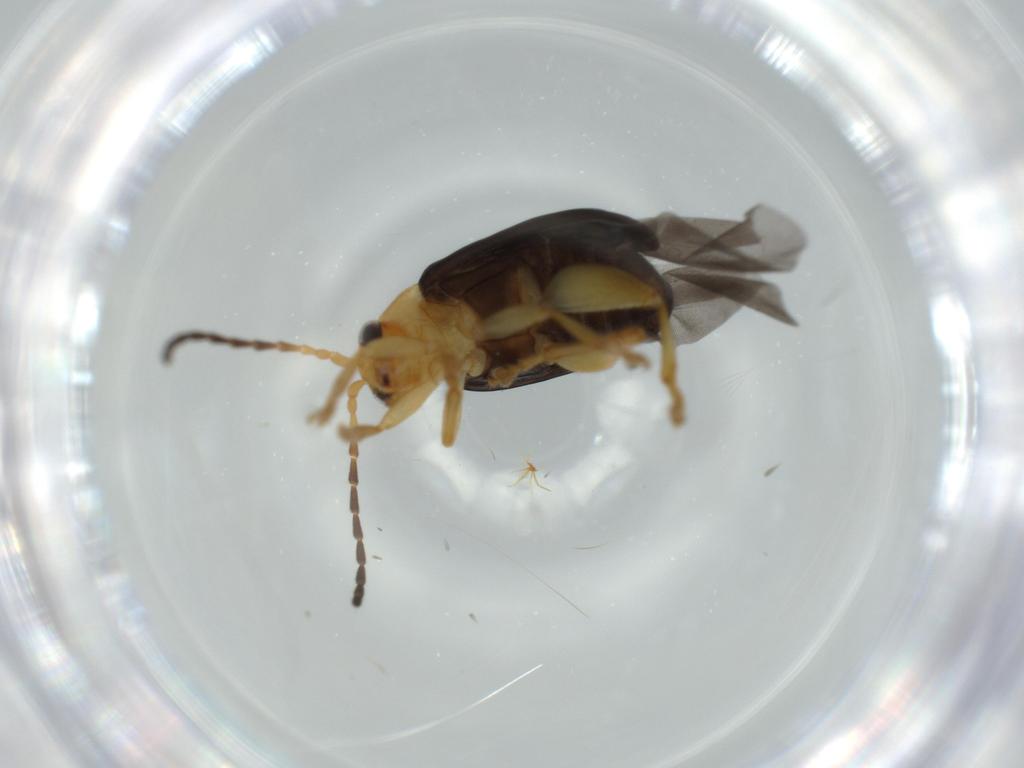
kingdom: Animalia
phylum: Arthropoda
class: Insecta
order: Coleoptera
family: Chrysomelidae
